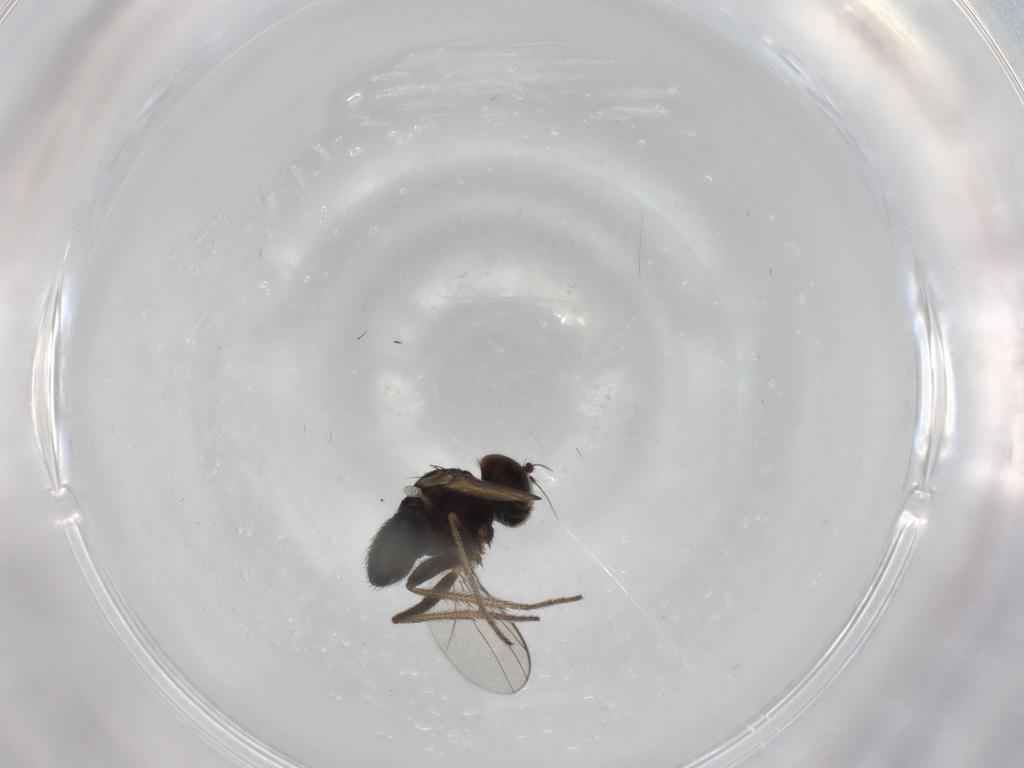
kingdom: Animalia
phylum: Arthropoda
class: Insecta
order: Diptera
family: Dolichopodidae
